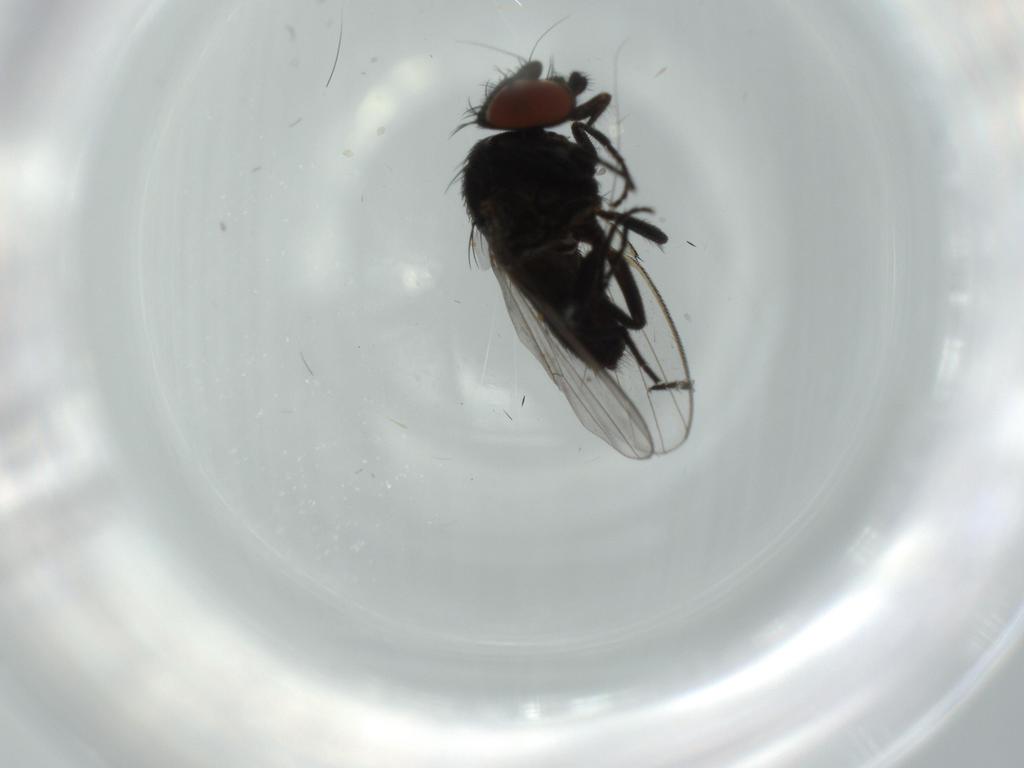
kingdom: Animalia
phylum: Arthropoda
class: Insecta
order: Diptera
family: Milichiidae
